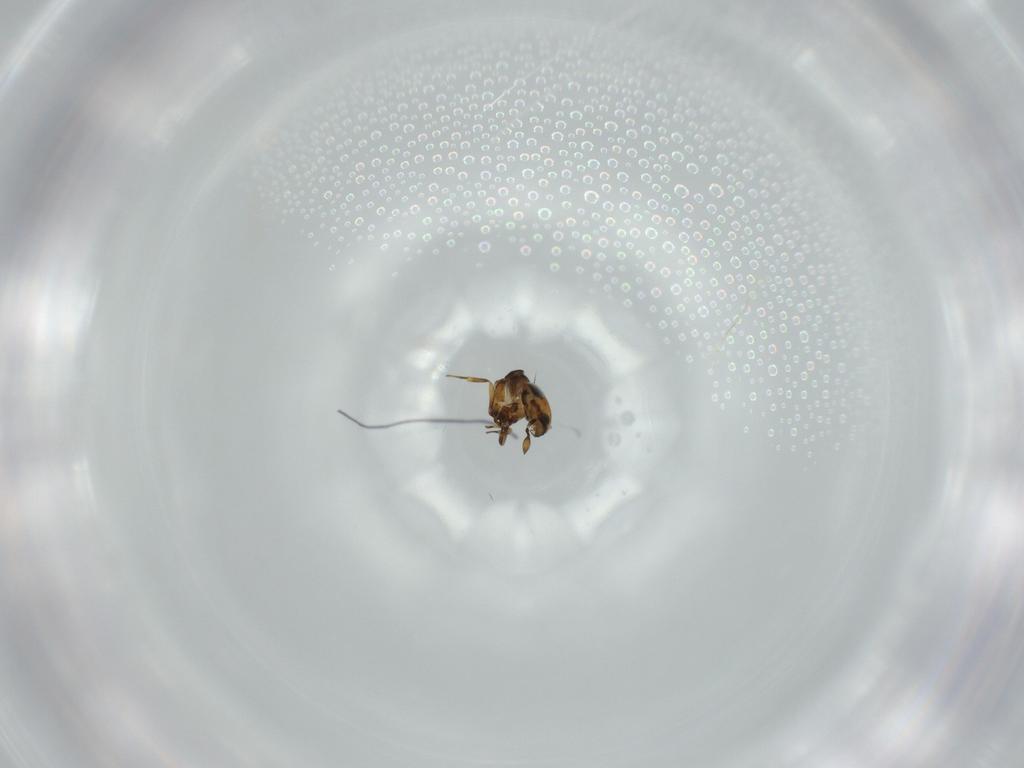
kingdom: Animalia
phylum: Arthropoda
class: Insecta
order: Hymenoptera
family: Scelionidae
